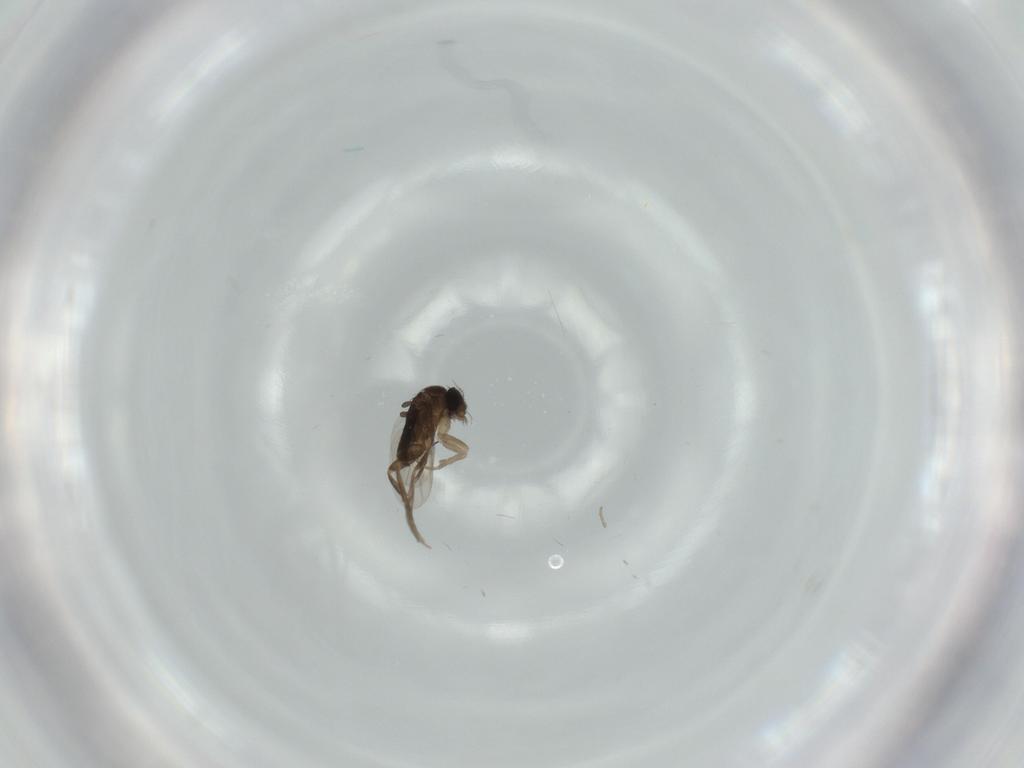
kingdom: Animalia
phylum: Arthropoda
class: Insecta
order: Diptera
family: Phoridae
